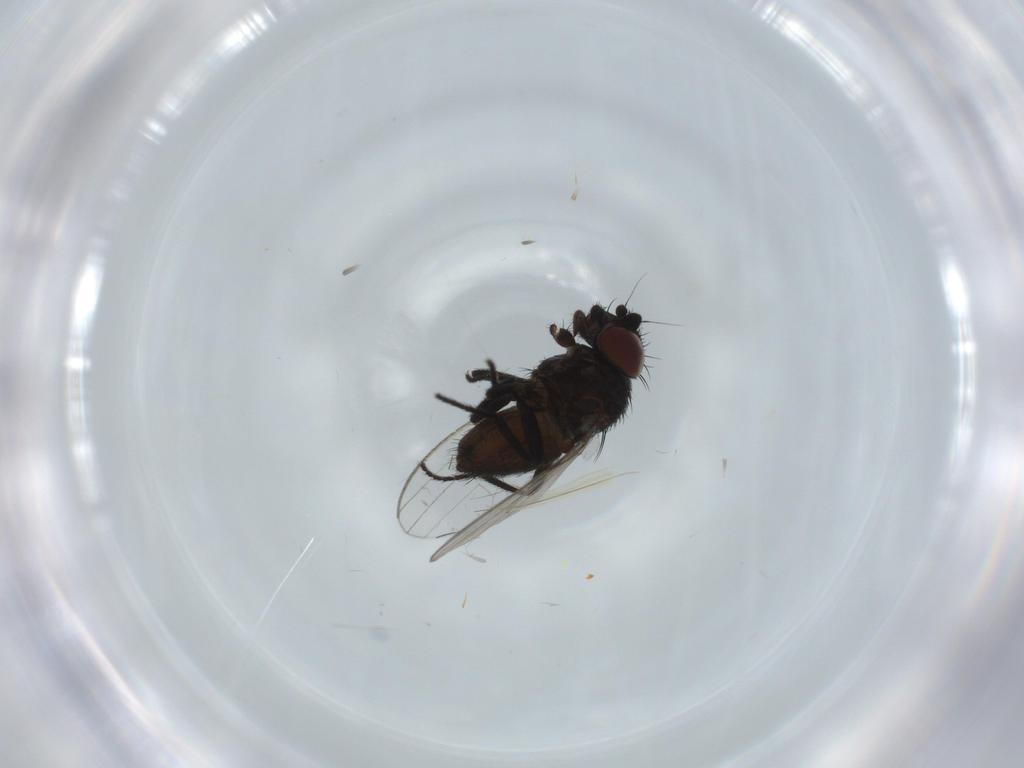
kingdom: Animalia
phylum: Arthropoda
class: Insecta
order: Diptera
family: Milichiidae
